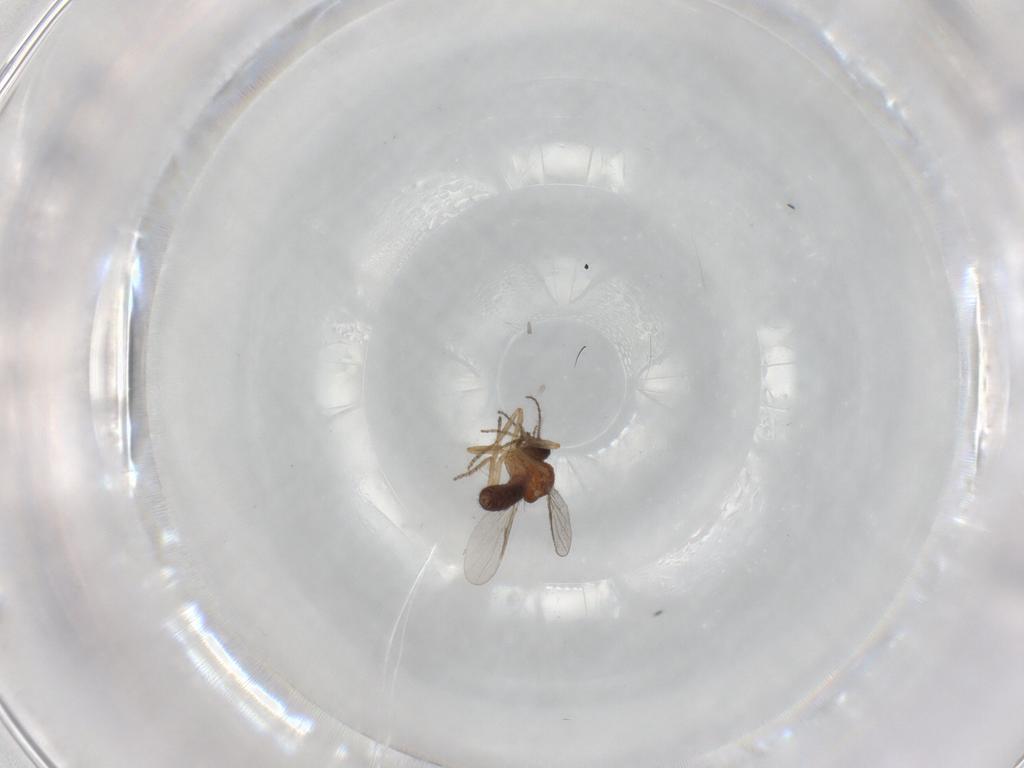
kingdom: Animalia
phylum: Arthropoda
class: Insecta
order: Diptera
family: Ceratopogonidae
